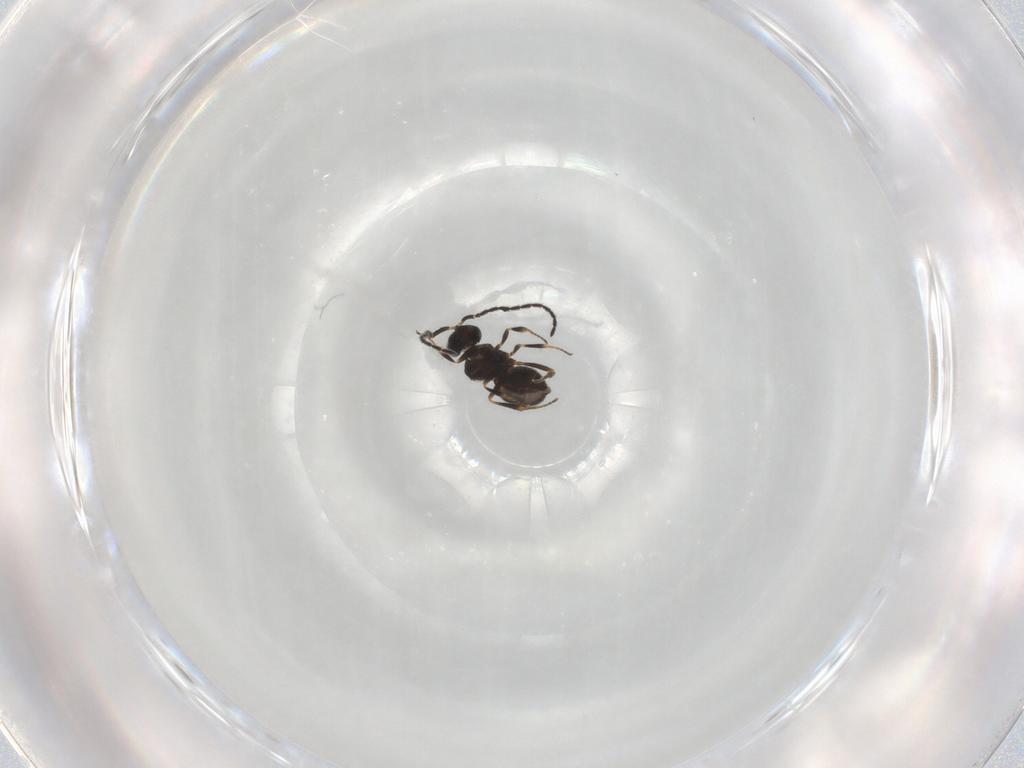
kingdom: Animalia
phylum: Arthropoda
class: Insecta
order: Hymenoptera
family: Scelionidae
